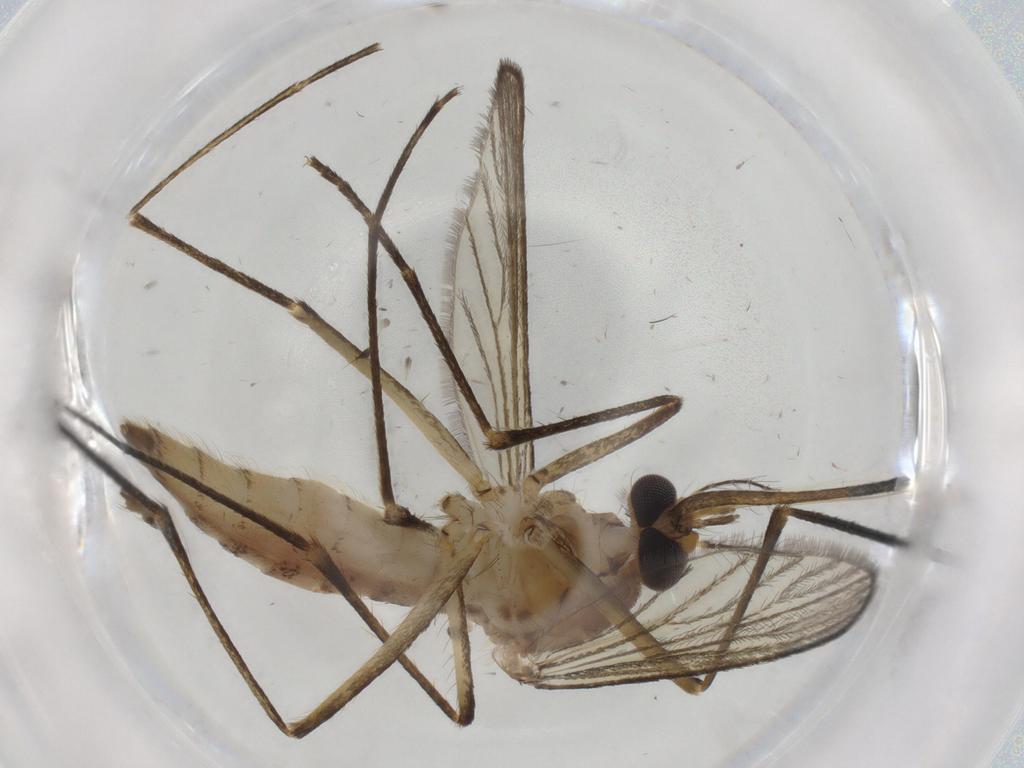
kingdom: Animalia
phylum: Arthropoda
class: Insecta
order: Diptera
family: Culicidae
